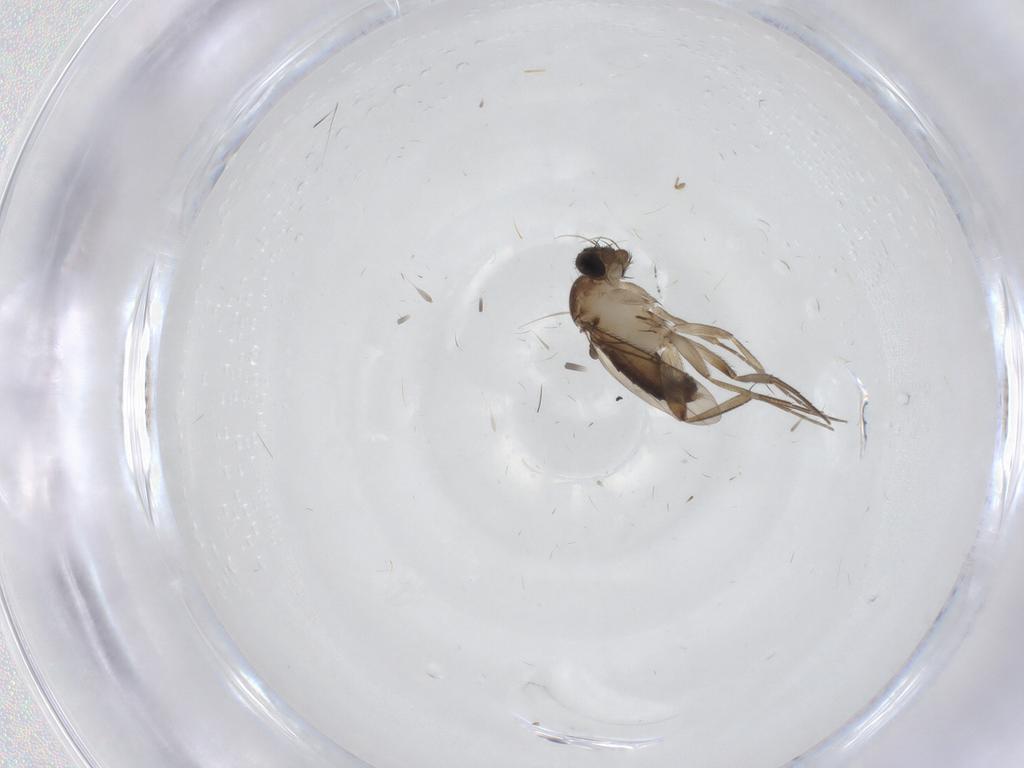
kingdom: Animalia
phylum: Arthropoda
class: Insecta
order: Diptera
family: Phoridae
